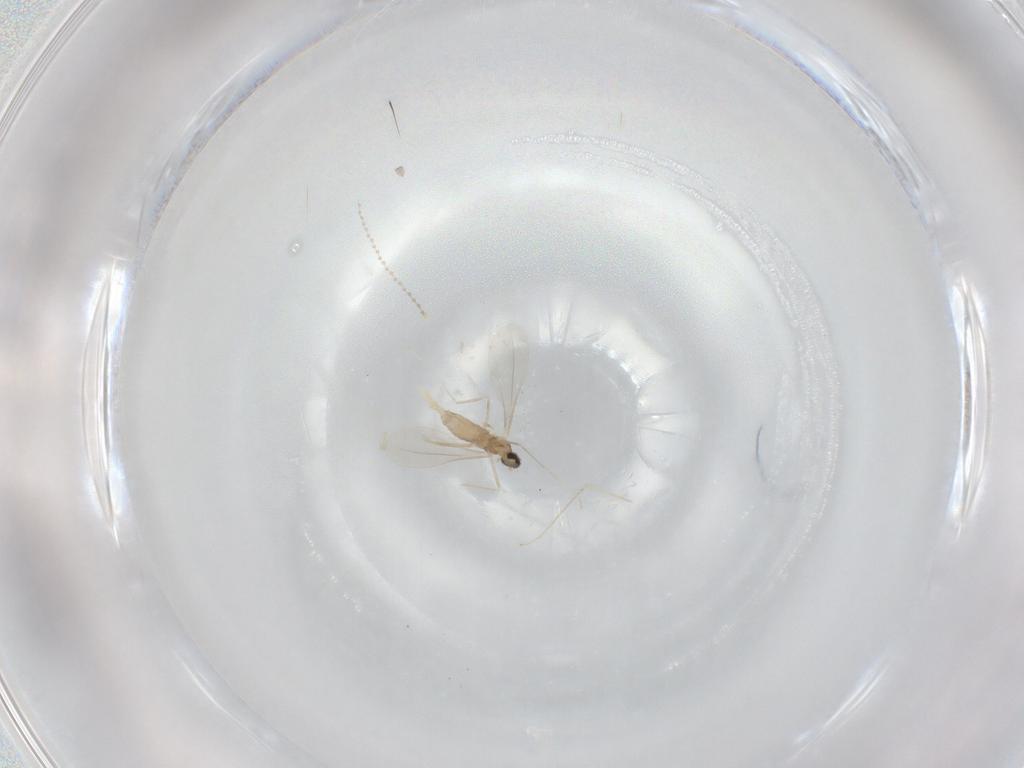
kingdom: Animalia
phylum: Arthropoda
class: Insecta
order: Diptera
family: Cecidomyiidae
